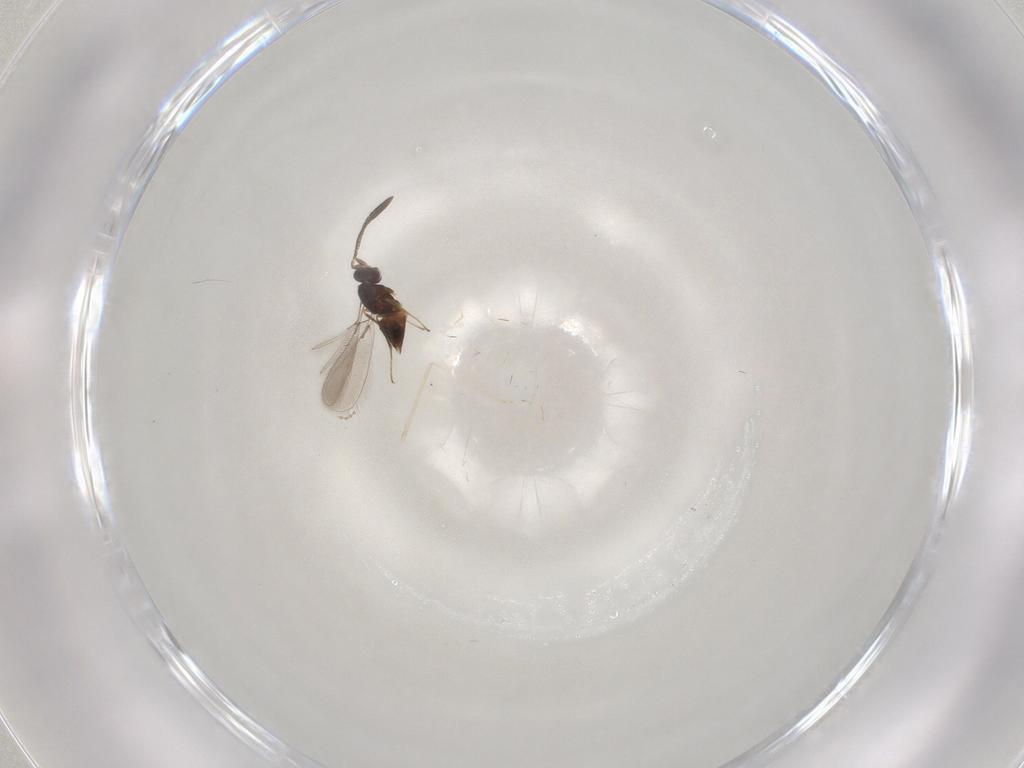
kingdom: Animalia
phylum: Arthropoda
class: Insecta
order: Hymenoptera
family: Mymaridae
